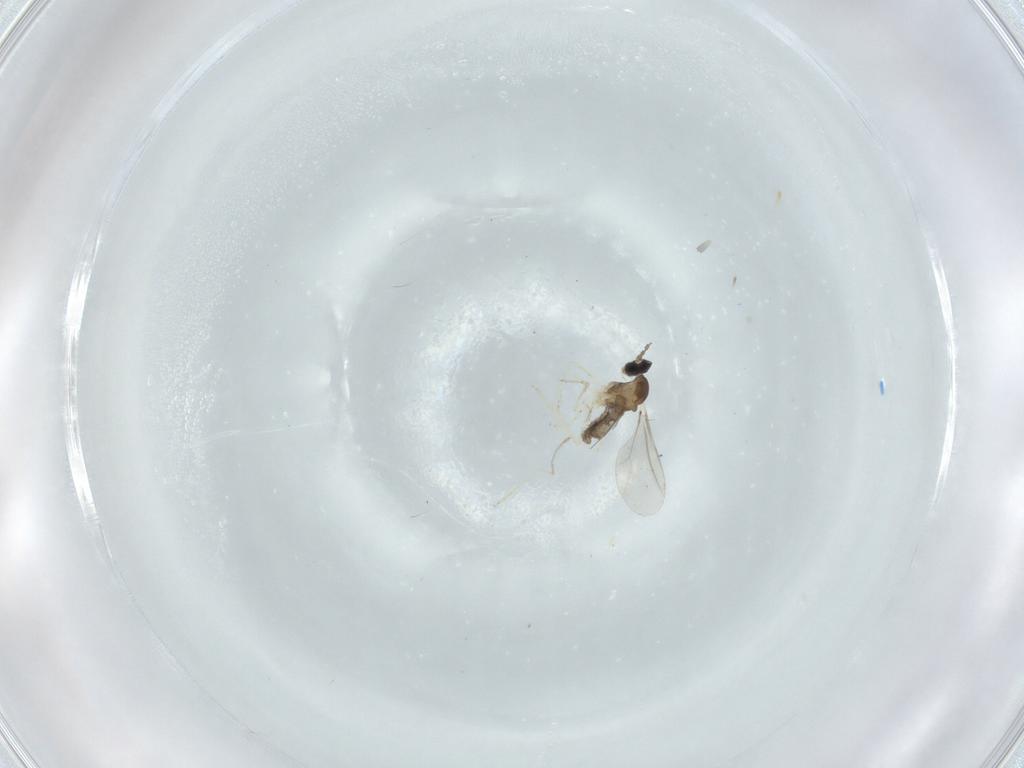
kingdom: Animalia
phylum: Arthropoda
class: Insecta
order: Diptera
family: Cecidomyiidae
